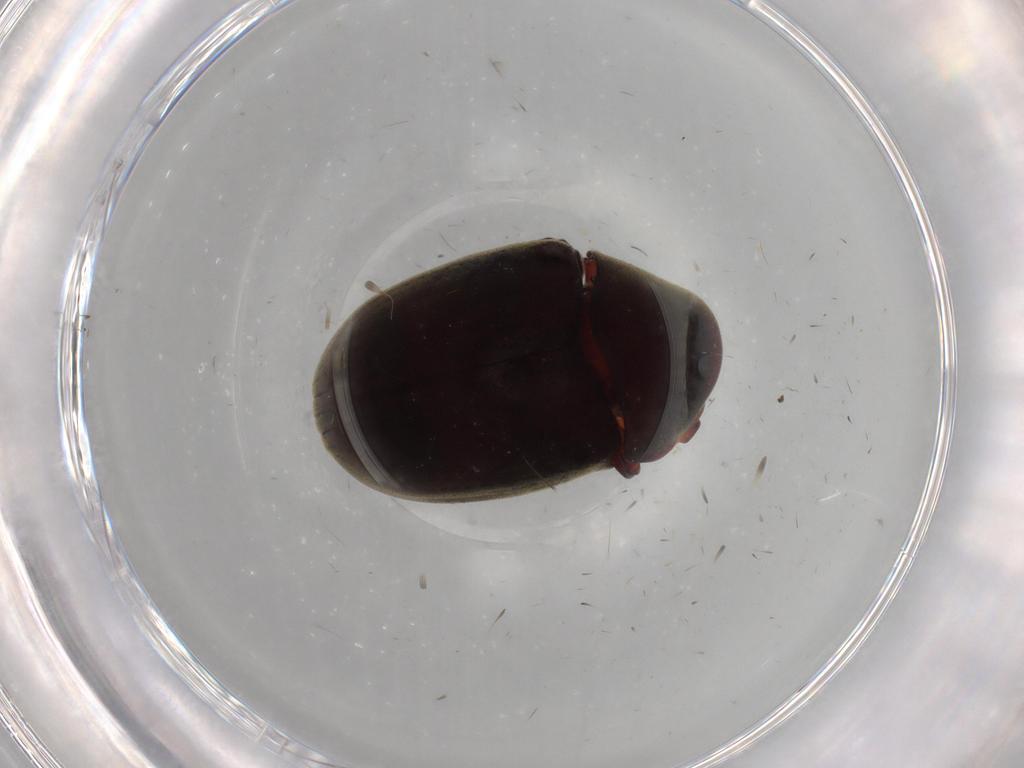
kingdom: Animalia
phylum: Arthropoda
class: Insecta
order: Coleoptera
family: Ptinidae
